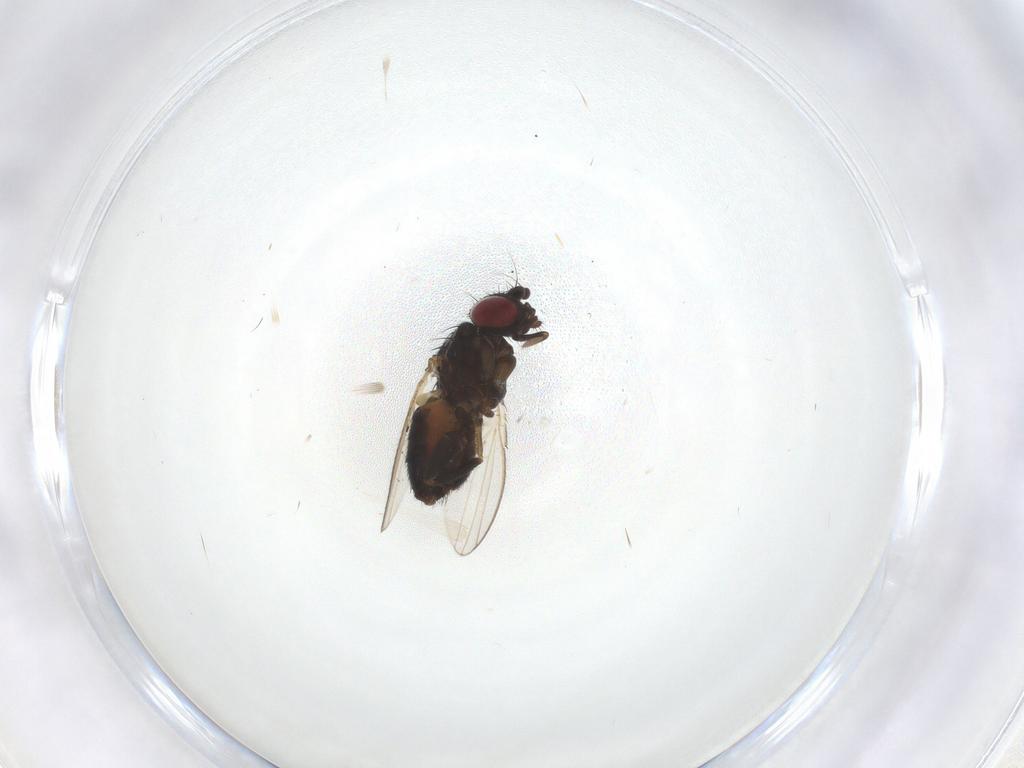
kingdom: Animalia
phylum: Arthropoda
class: Insecta
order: Diptera
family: Milichiidae
